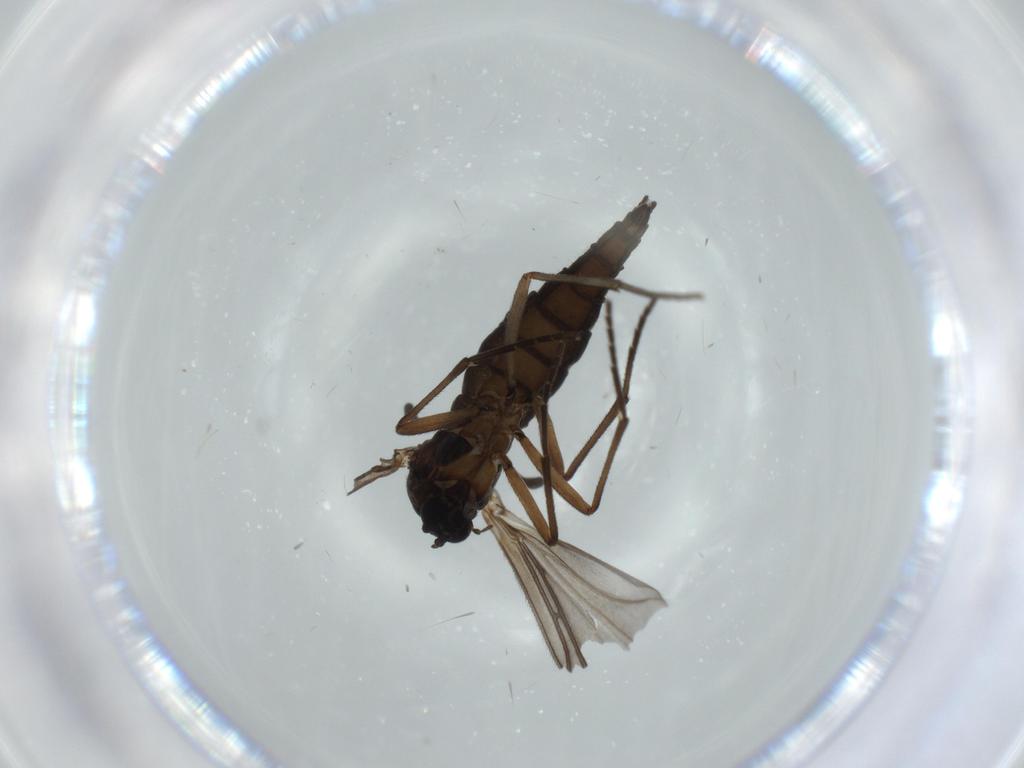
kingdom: Animalia
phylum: Arthropoda
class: Insecta
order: Diptera
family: Sciaridae
